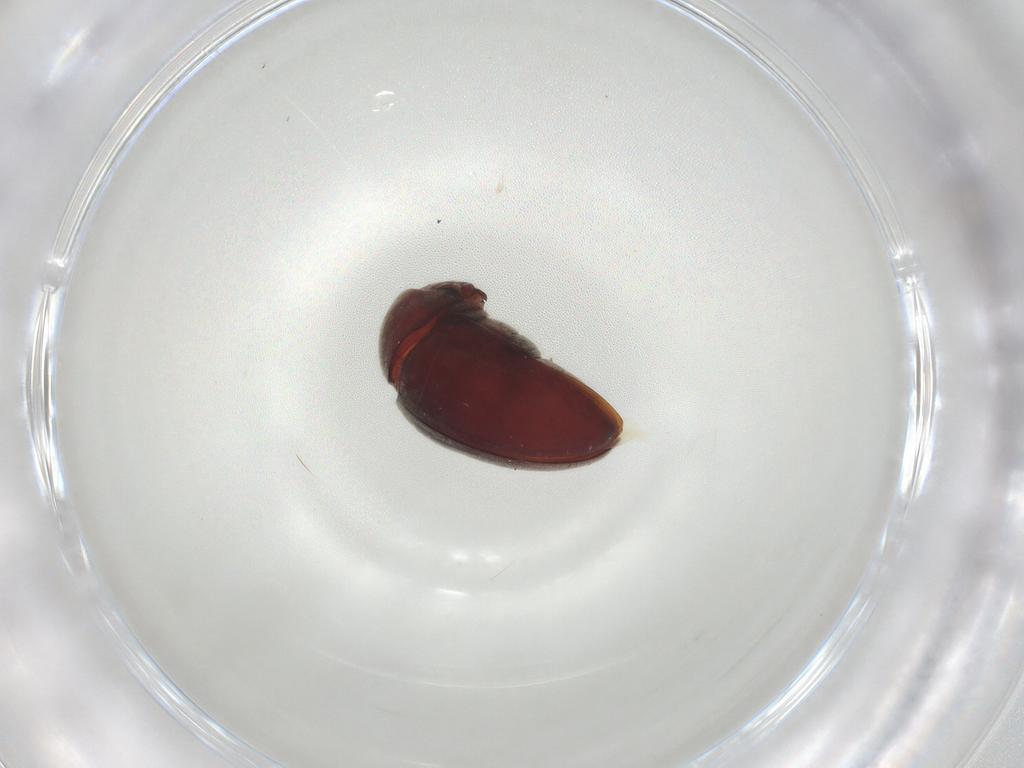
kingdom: Animalia
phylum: Arthropoda
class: Insecta
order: Coleoptera
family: Anobiidae
